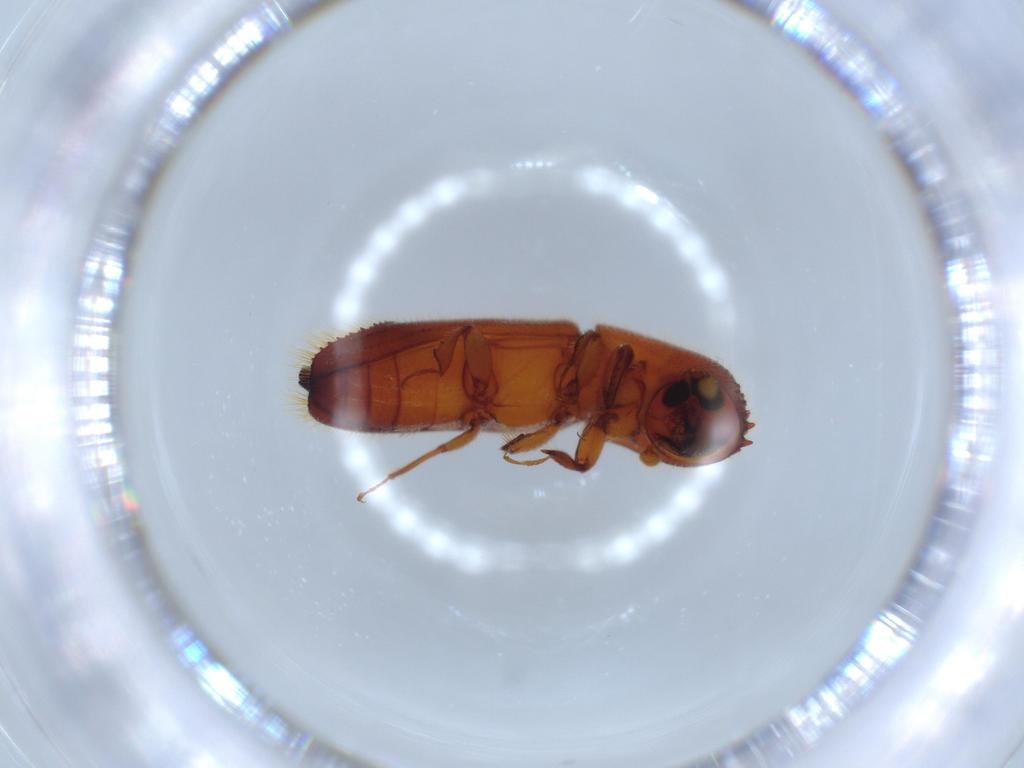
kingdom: Animalia
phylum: Arthropoda
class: Insecta
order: Coleoptera
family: Curculionidae
